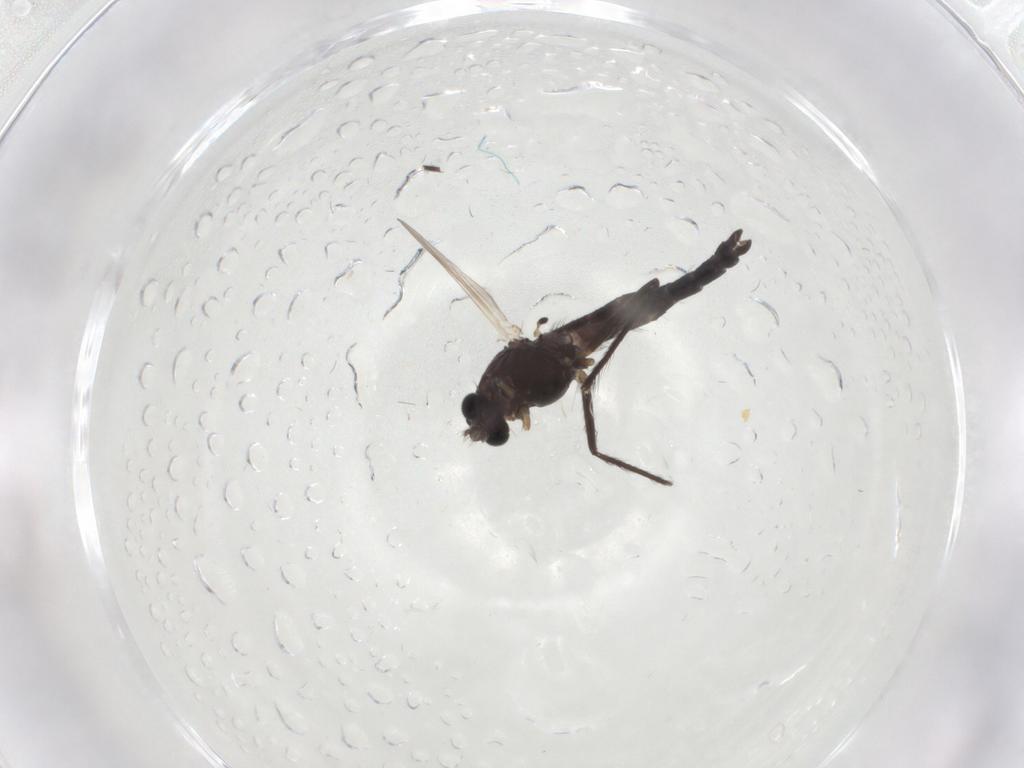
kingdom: Animalia
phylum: Arthropoda
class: Insecta
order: Diptera
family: Chironomidae
